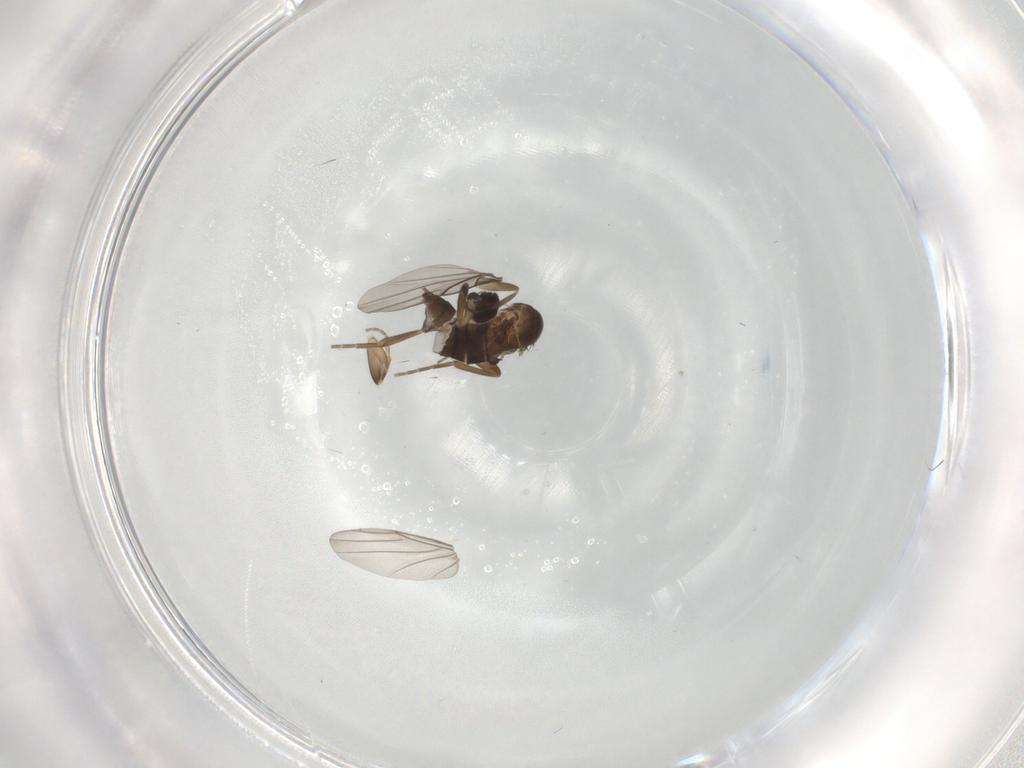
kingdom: Animalia
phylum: Arthropoda
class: Insecta
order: Diptera
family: Phoridae
